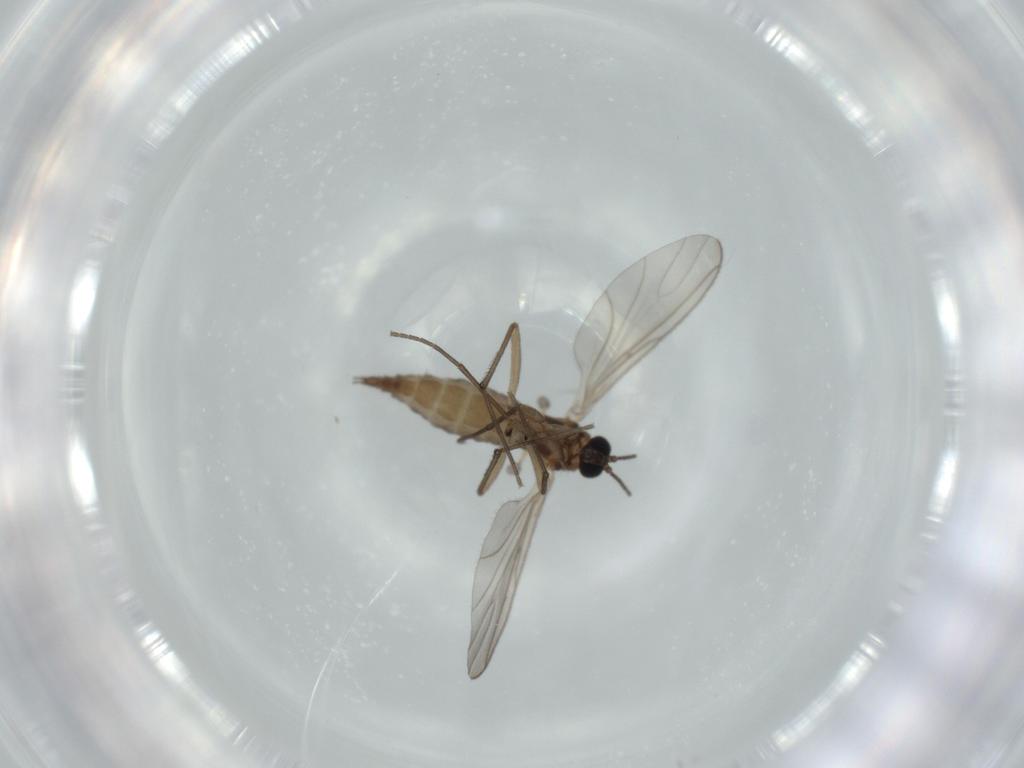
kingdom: Animalia
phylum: Arthropoda
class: Insecta
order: Diptera
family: Sciaridae
